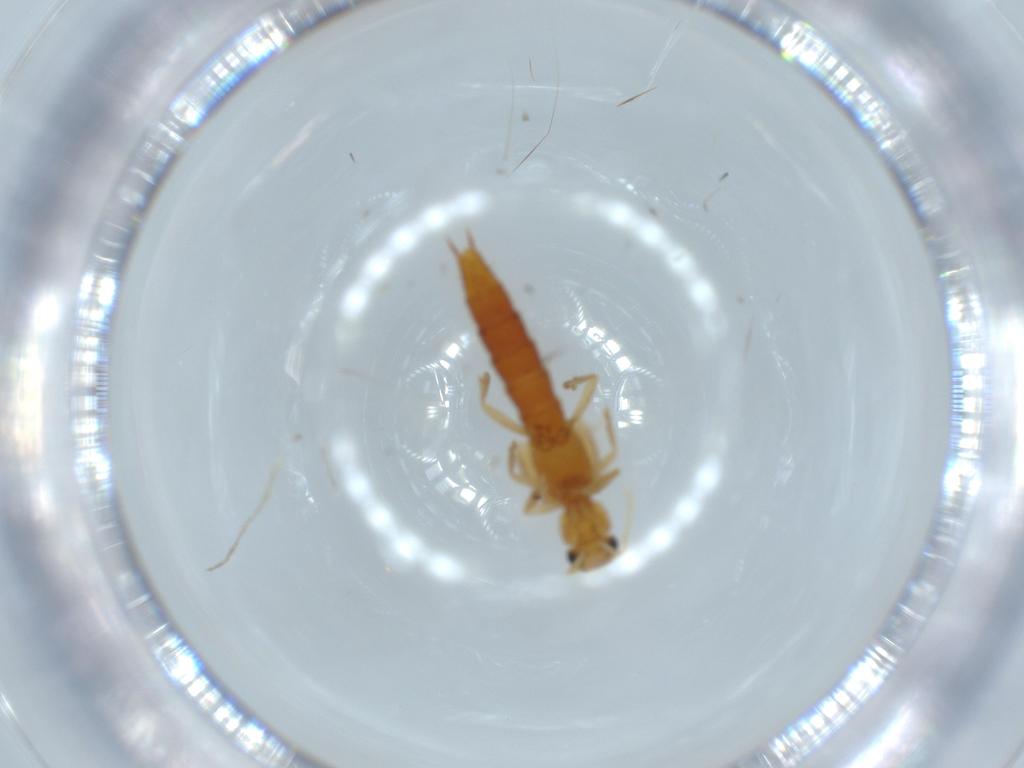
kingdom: Animalia
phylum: Arthropoda
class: Insecta
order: Coleoptera
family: Staphylinidae
